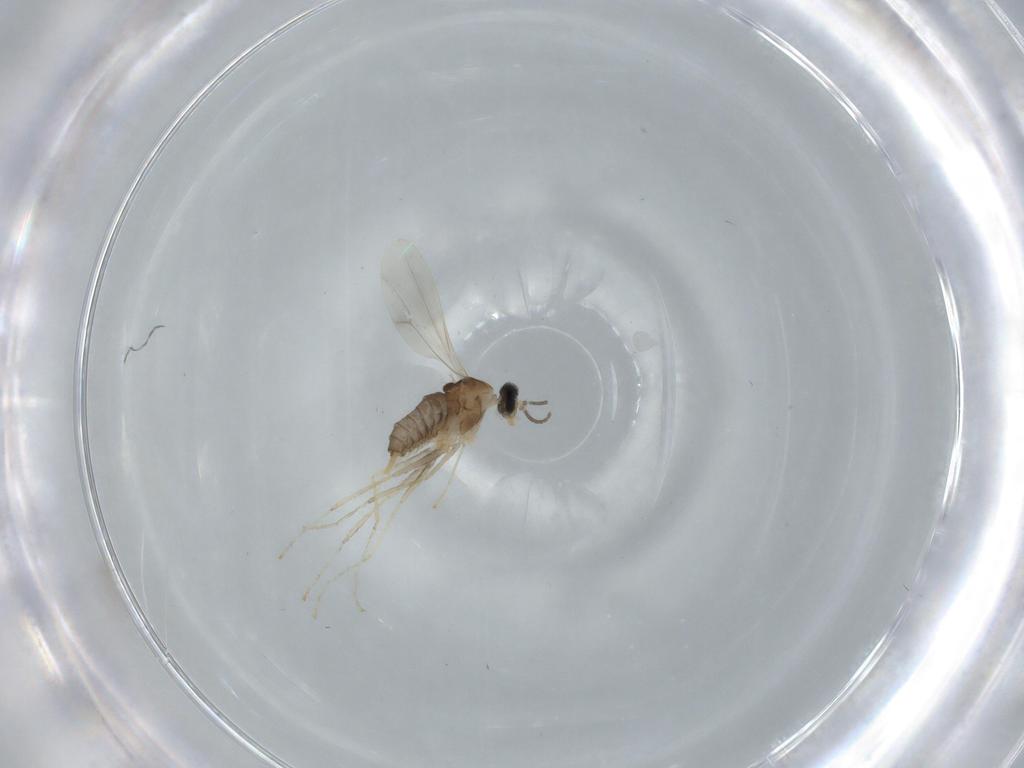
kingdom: Animalia
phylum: Arthropoda
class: Insecta
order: Diptera
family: Cecidomyiidae
